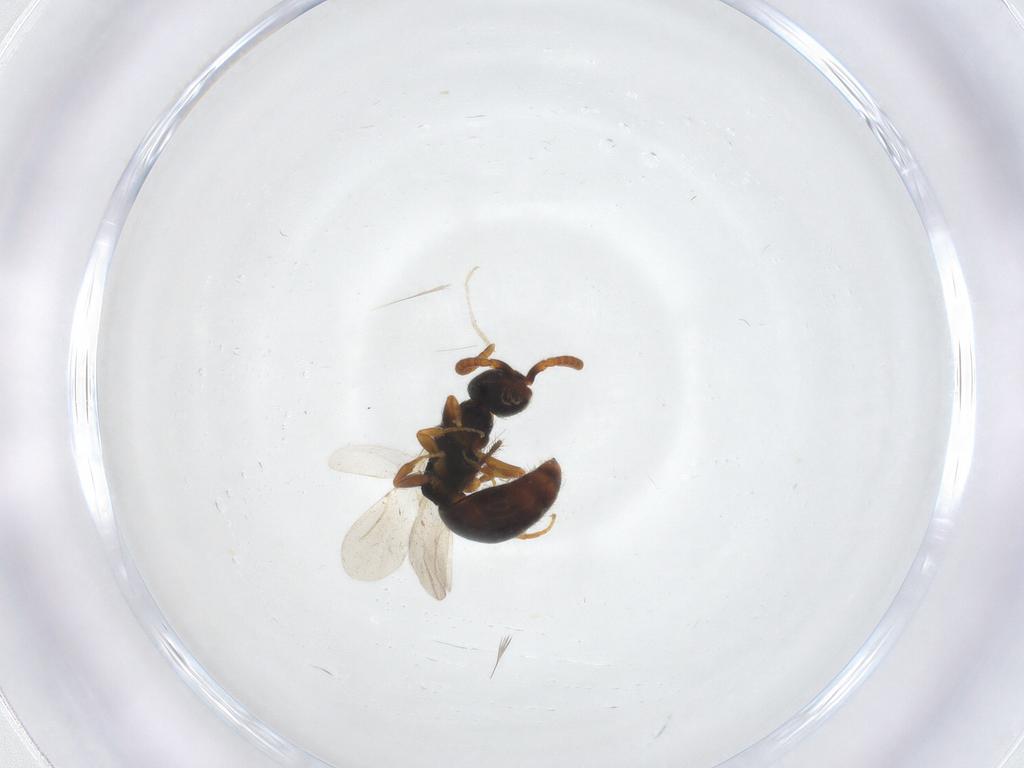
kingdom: Animalia
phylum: Arthropoda
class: Insecta
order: Hymenoptera
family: Bethylidae
